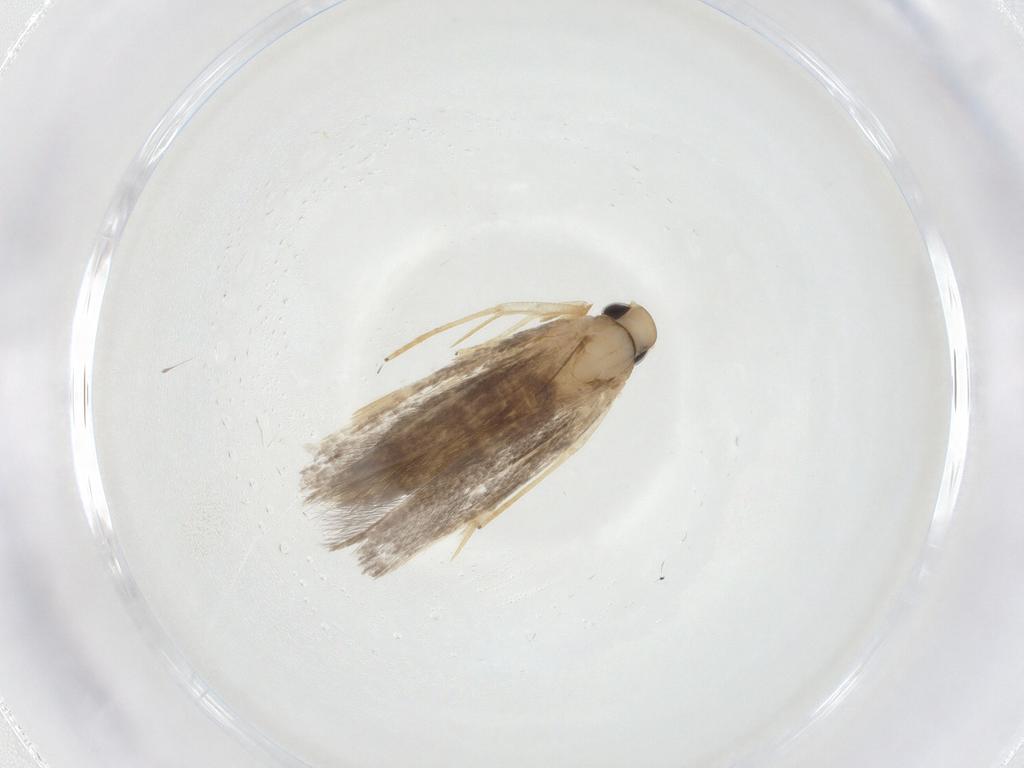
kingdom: Animalia
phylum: Arthropoda
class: Insecta
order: Lepidoptera
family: Cosmopterigidae
